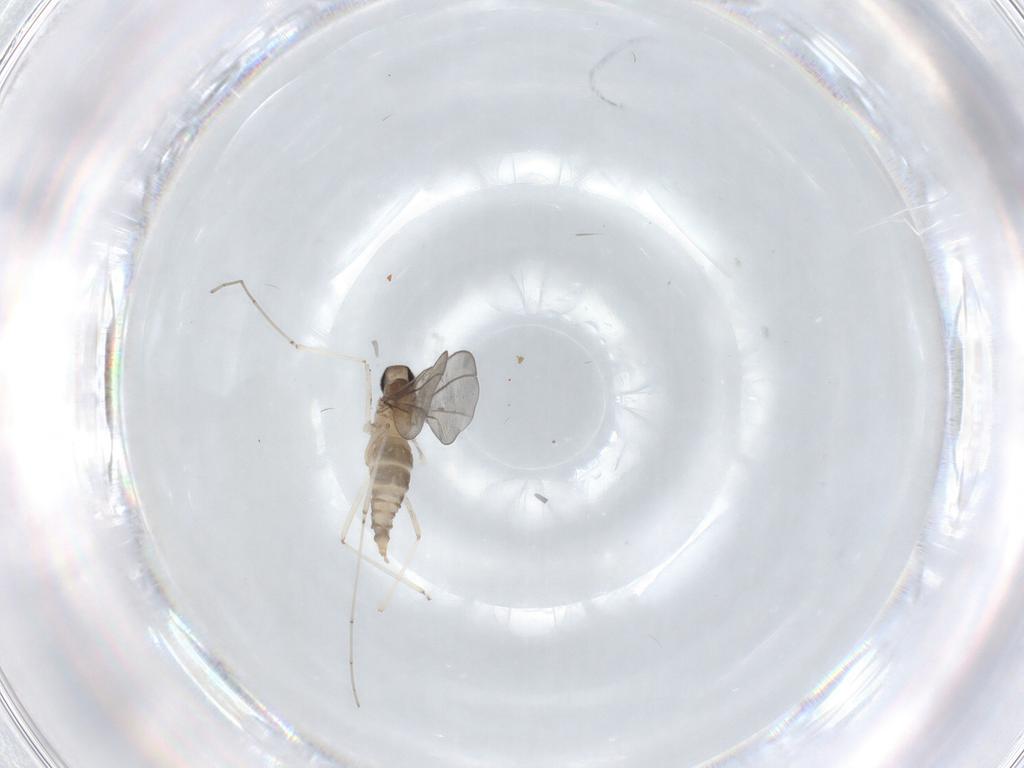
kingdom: Animalia
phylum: Arthropoda
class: Insecta
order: Diptera
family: Cecidomyiidae
